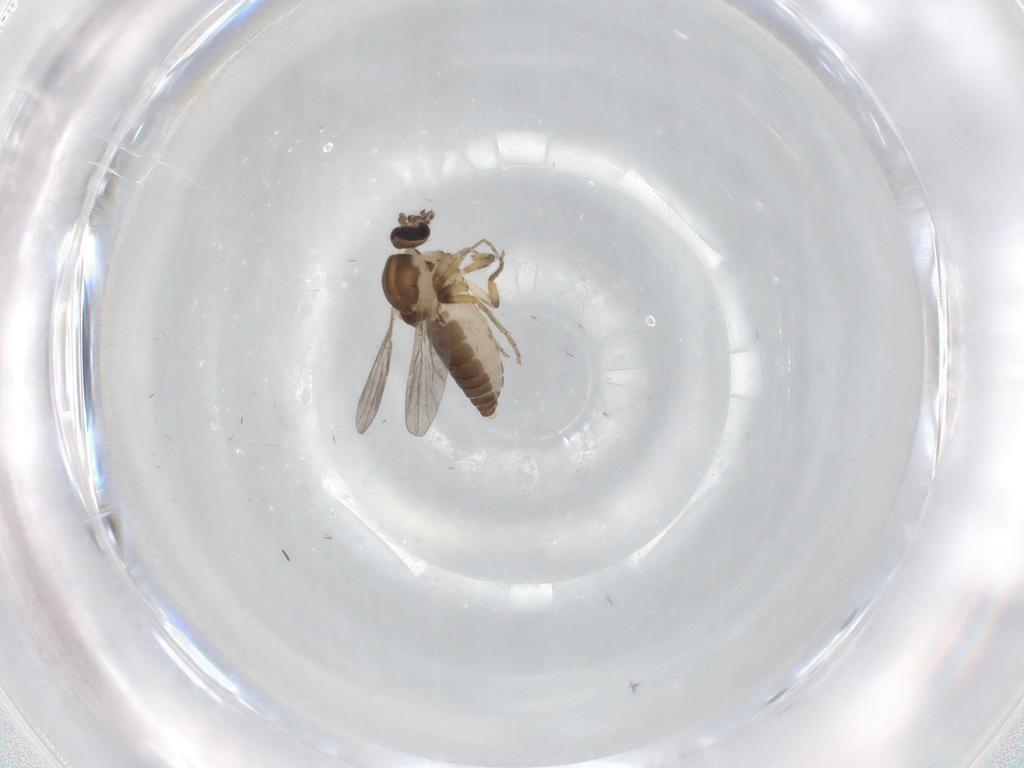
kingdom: Animalia
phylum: Arthropoda
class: Insecta
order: Diptera
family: Ceratopogonidae
